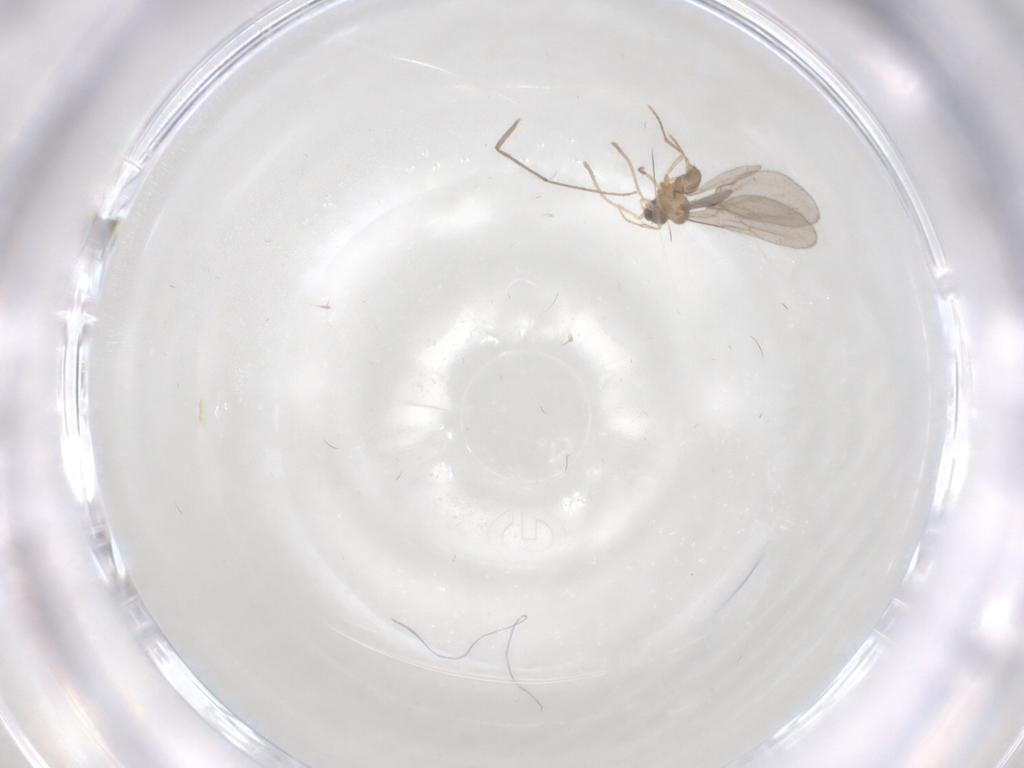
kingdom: Animalia
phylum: Arthropoda
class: Insecta
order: Hymenoptera
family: Formicidae
